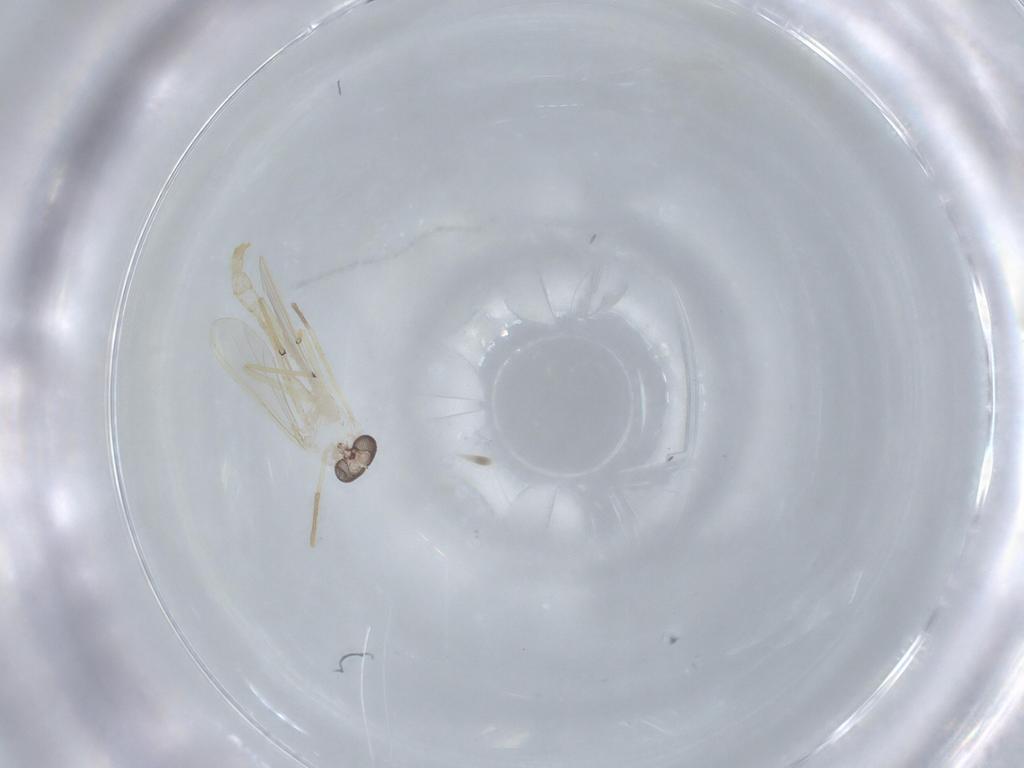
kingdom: Animalia
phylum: Arthropoda
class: Insecta
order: Diptera
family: Chironomidae
